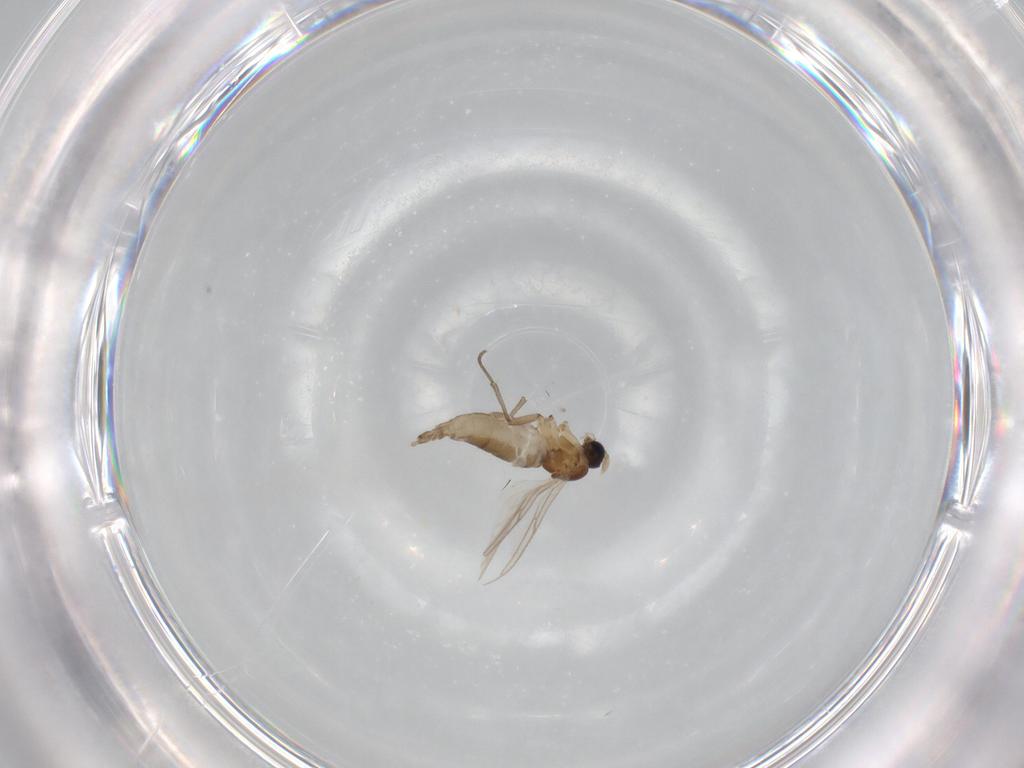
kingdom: Animalia
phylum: Arthropoda
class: Insecta
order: Diptera
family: Sciaridae
